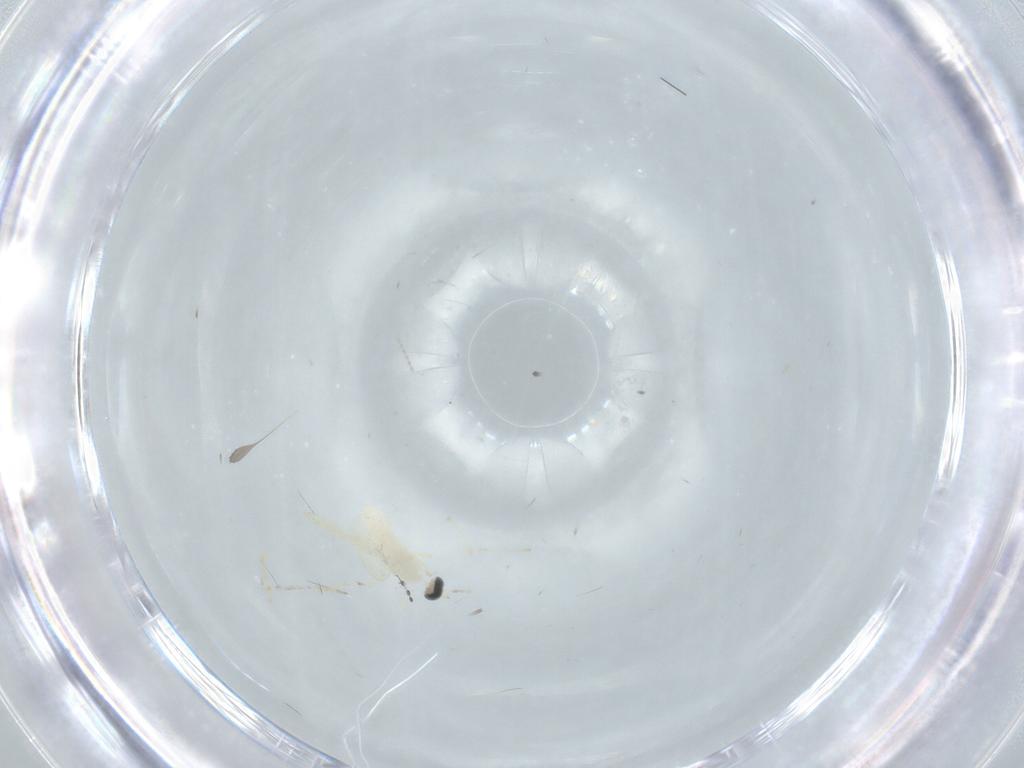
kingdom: Animalia
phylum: Arthropoda
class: Insecta
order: Diptera
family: Cecidomyiidae
